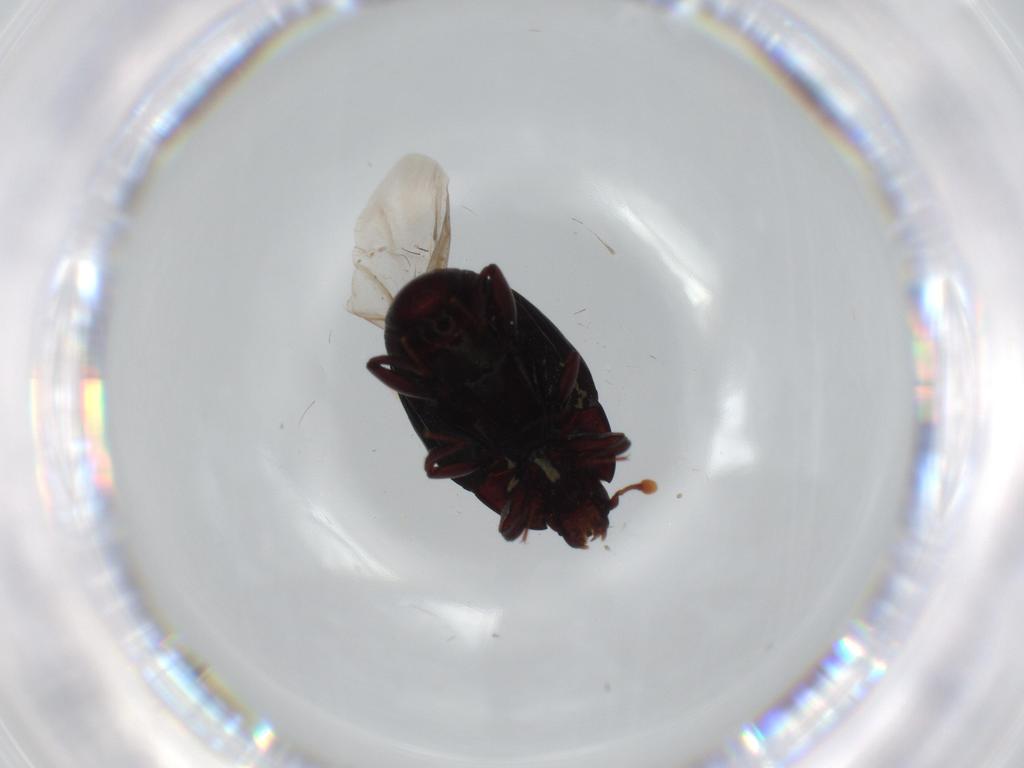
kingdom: Animalia
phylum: Arthropoda
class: Insecta
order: Coleoptera
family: Histeridae
